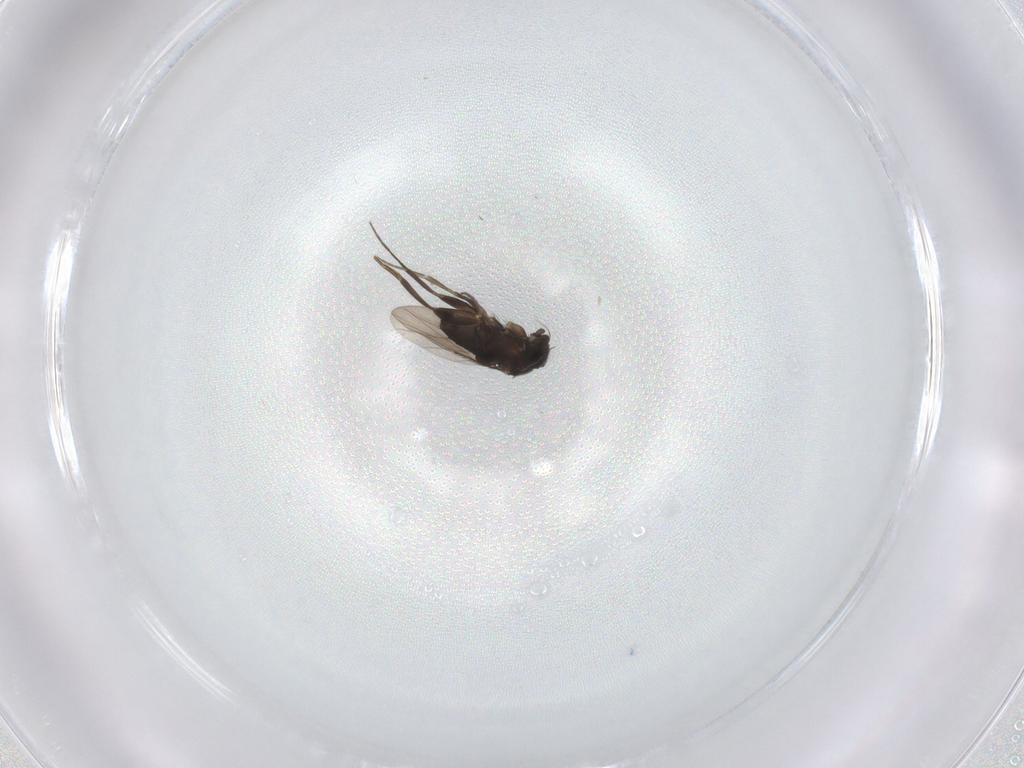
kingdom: Animalia
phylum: Arthropoda
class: Insecta
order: Diptera
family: Phoridae
